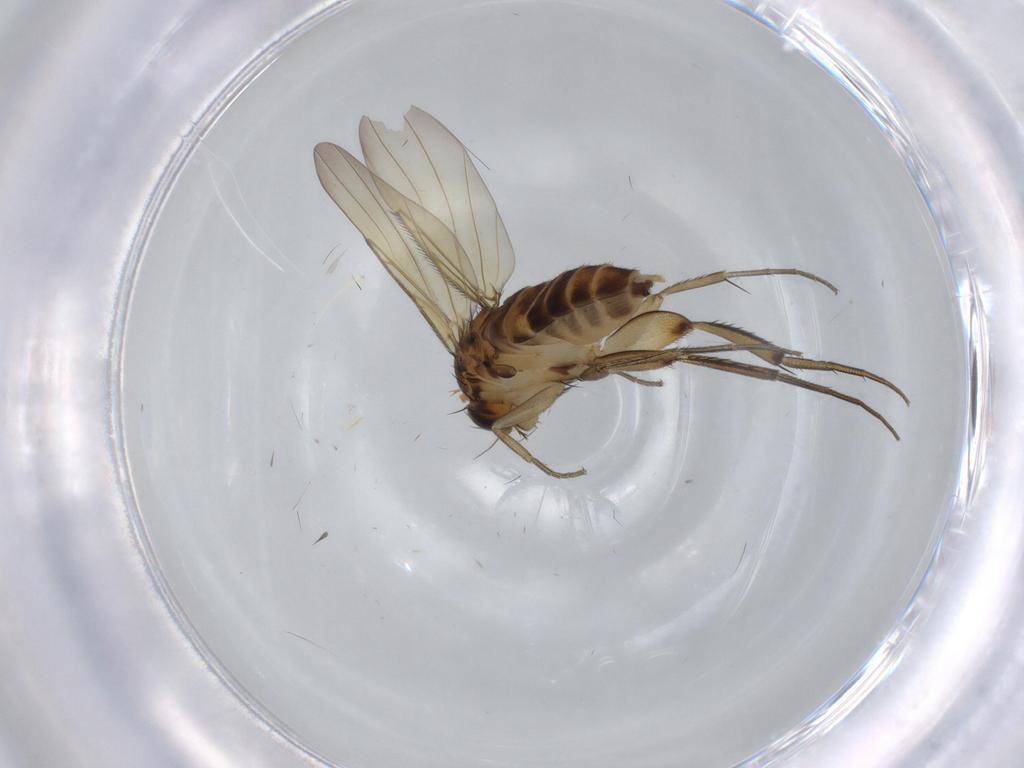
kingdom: Animalia
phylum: Arthropoda
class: Insecta
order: Diptera
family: Phoridae
